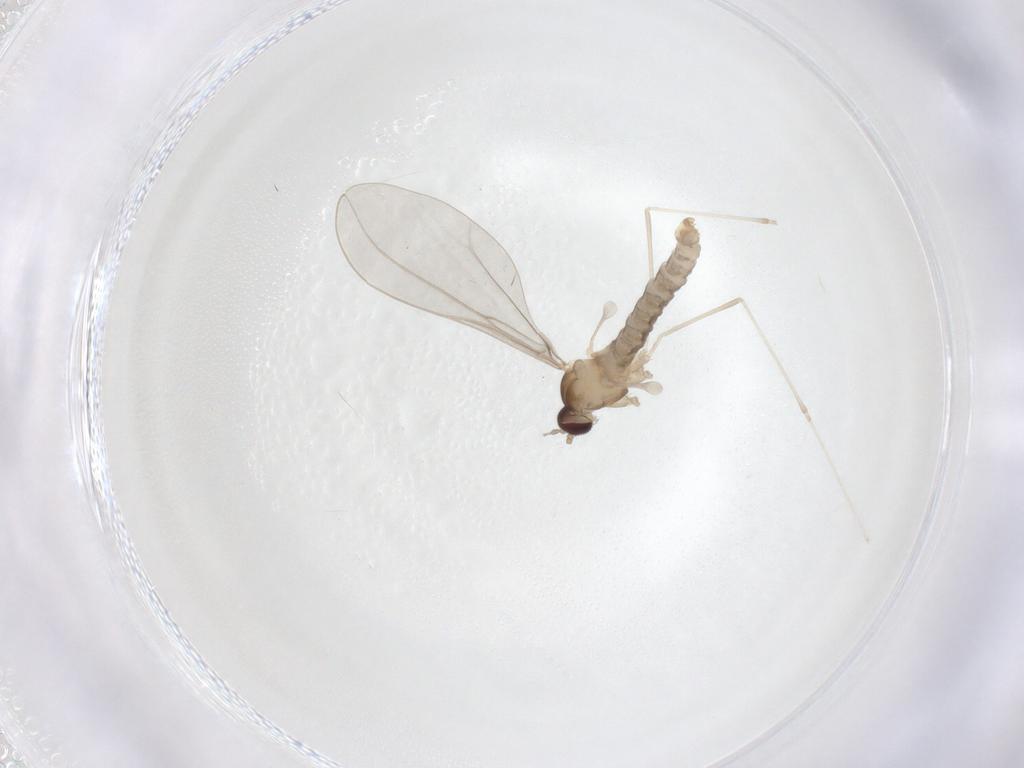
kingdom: Animalia
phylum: Arthropoda
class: Insecta
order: Diptera
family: Cecidomyiidae
